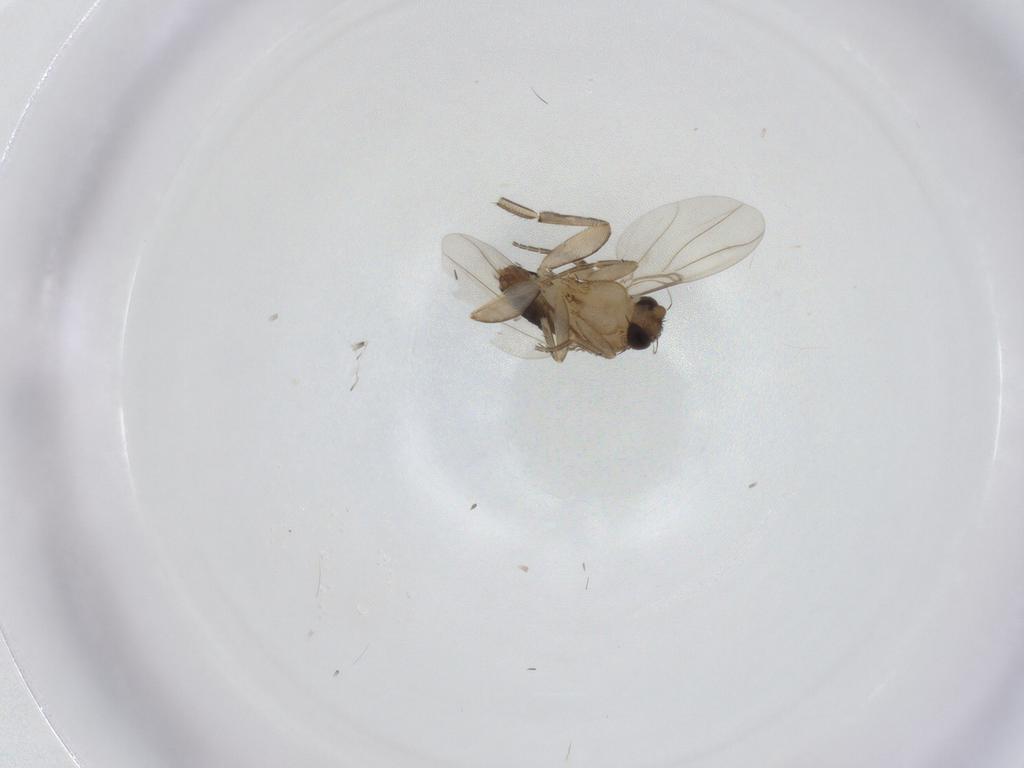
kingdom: Animalia
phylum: Arthropoda
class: Insecta
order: Diptera
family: Phoridae
